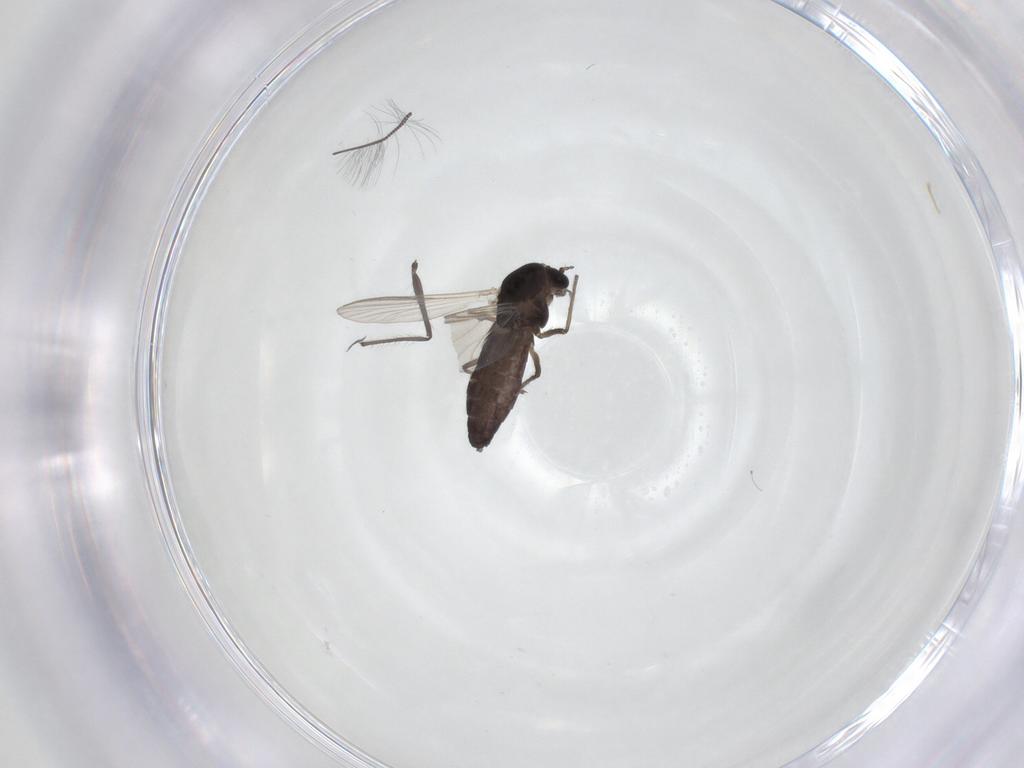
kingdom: Animalia
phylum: Arthropoda
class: Insecta
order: Diptera
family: Chironomidae
